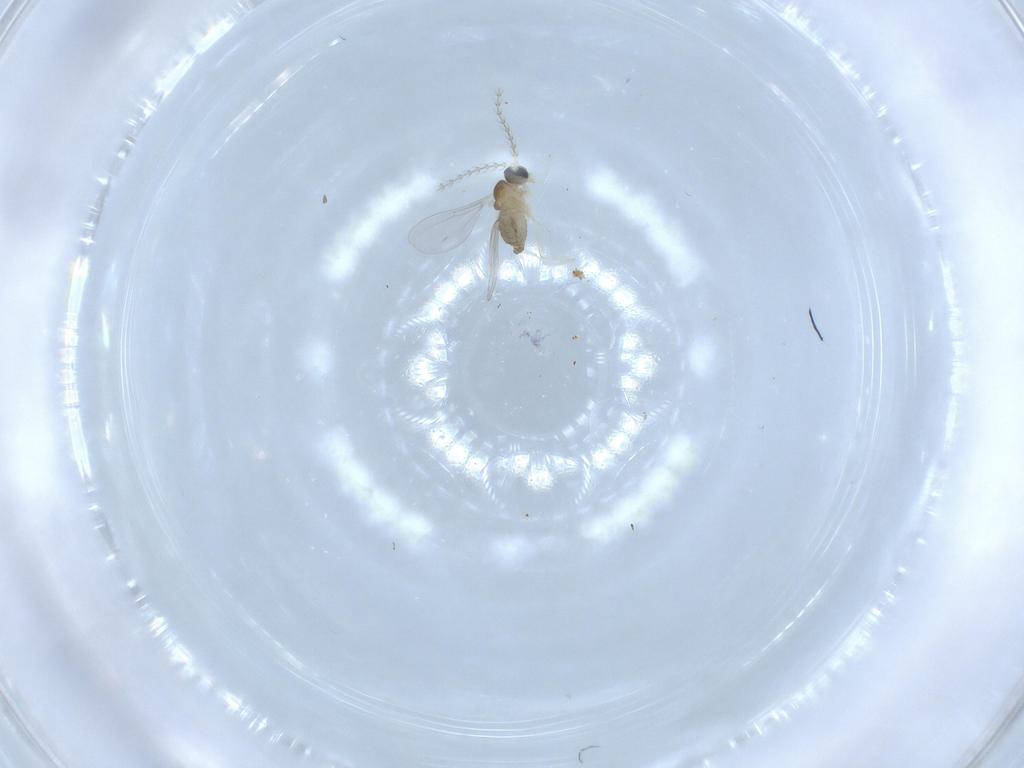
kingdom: Animalia
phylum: Arthropoda
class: Insecta
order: Diptera
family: Cecidomyiidae
